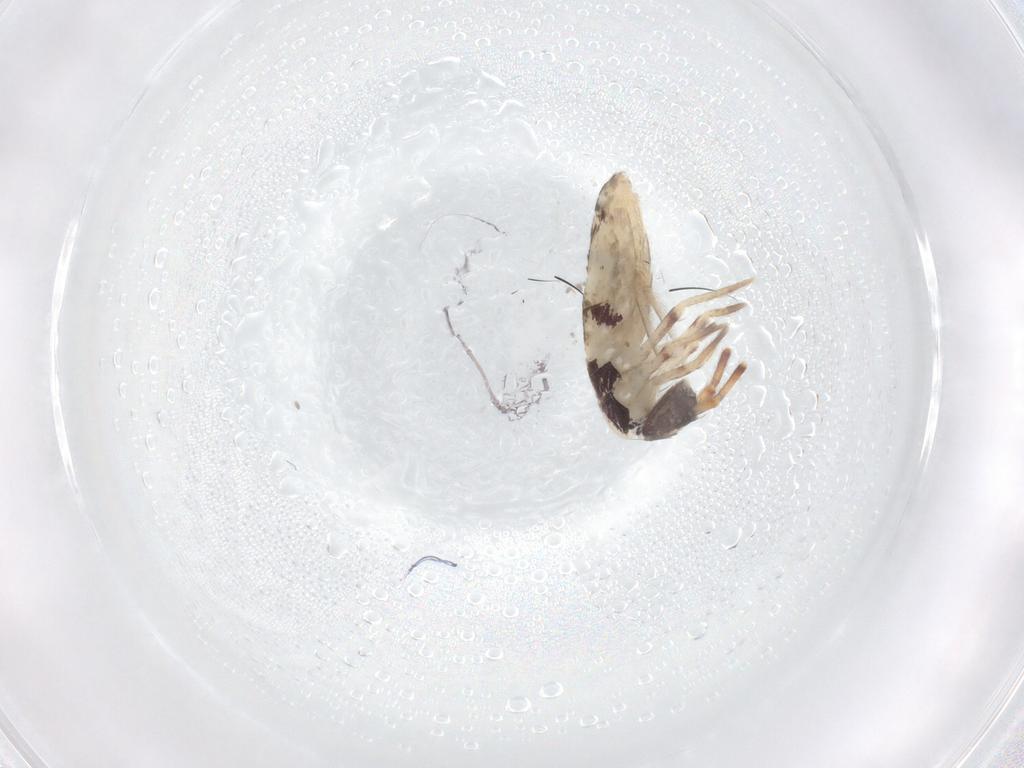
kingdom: Animalia
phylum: Arthropoda
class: Collembola
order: Entomobryomorpha
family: Entomobryidae
